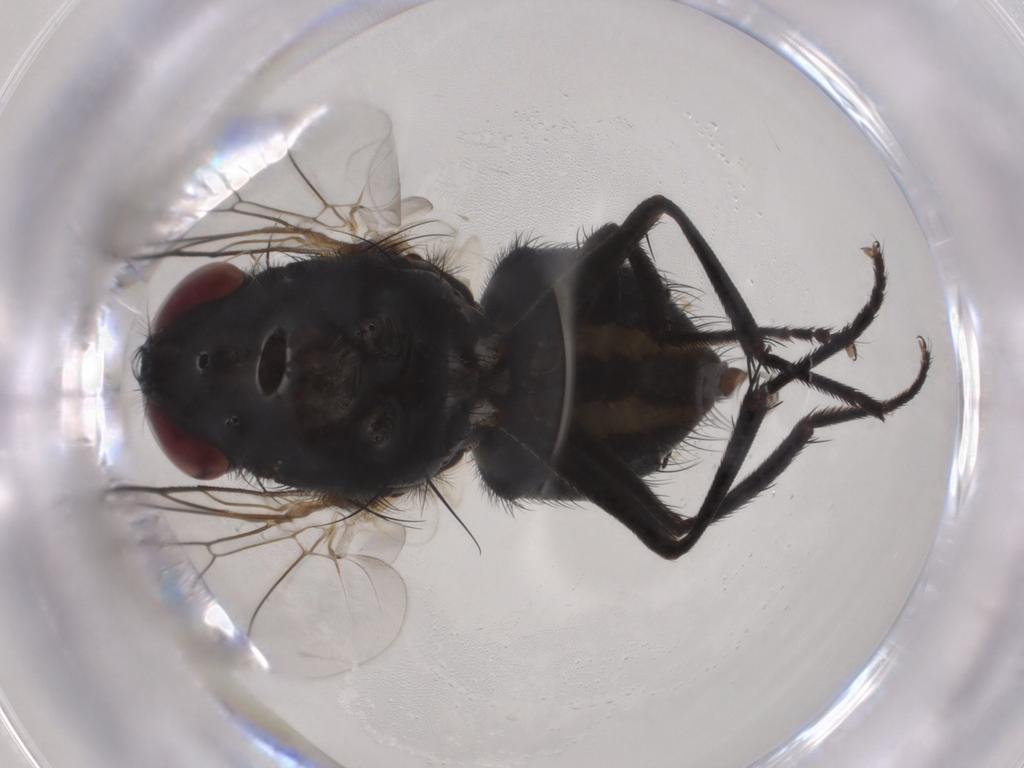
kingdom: Animalia
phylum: Arthropoda
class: Insecta
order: Diptera
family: Muscidae
